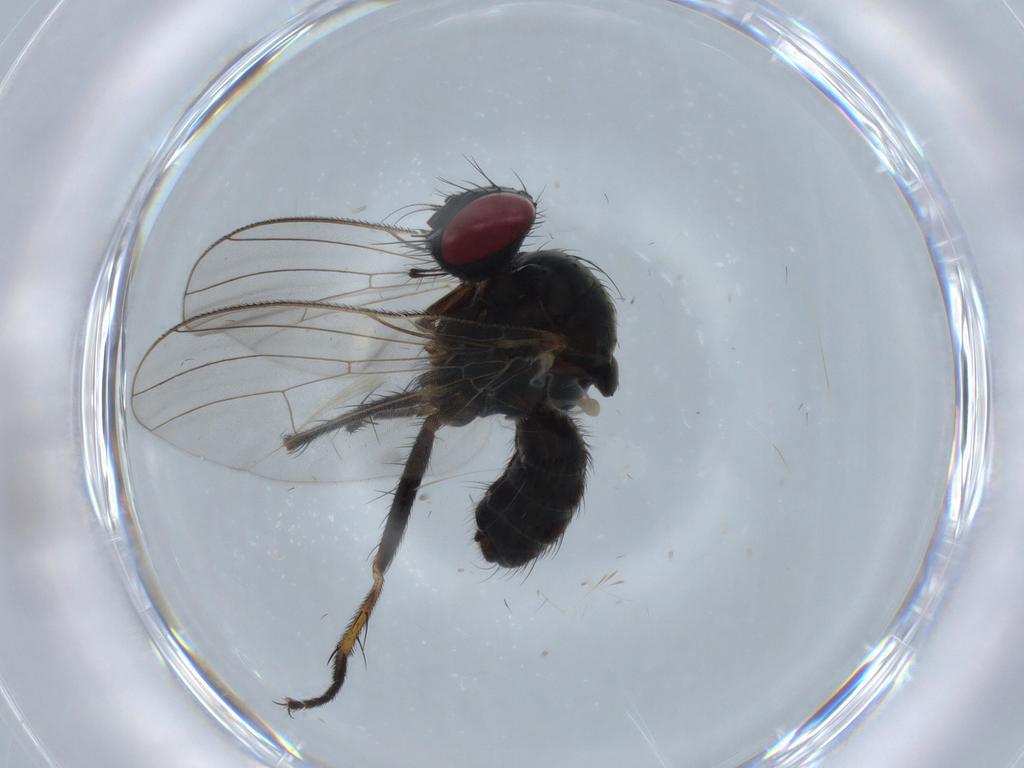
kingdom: Animalia
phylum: Arthropoda
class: Insecta
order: Diptera
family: Muscidae
